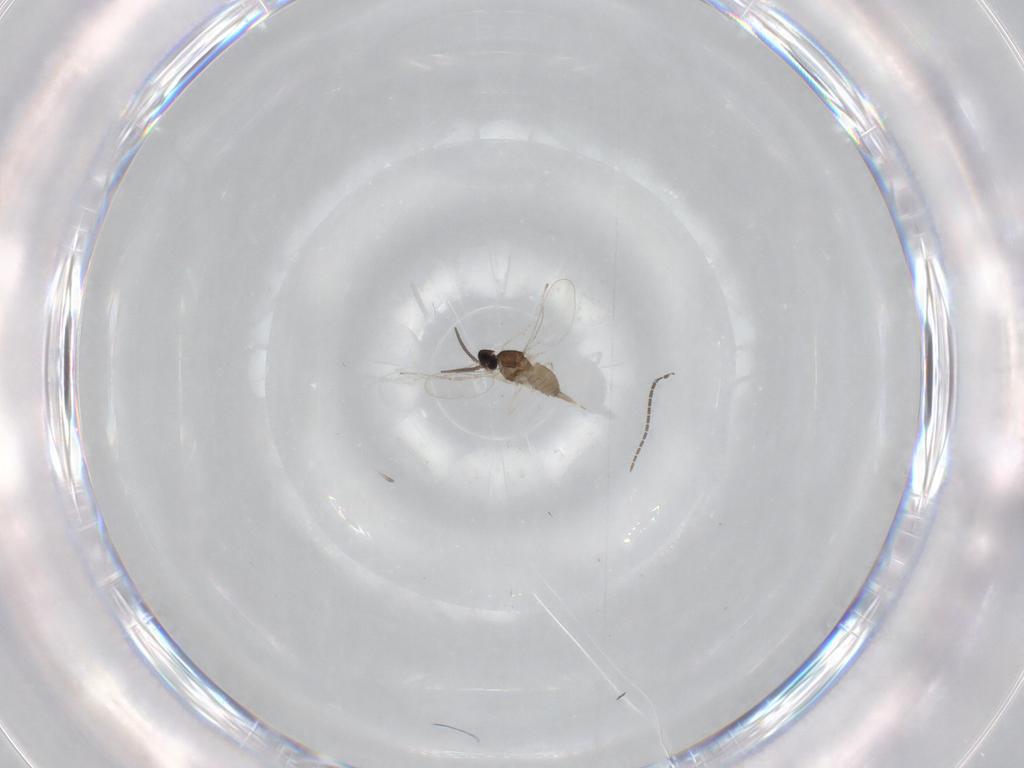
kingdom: Animalia
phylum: Arthropoda
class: Insecta
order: Diptera
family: Sciaridae
